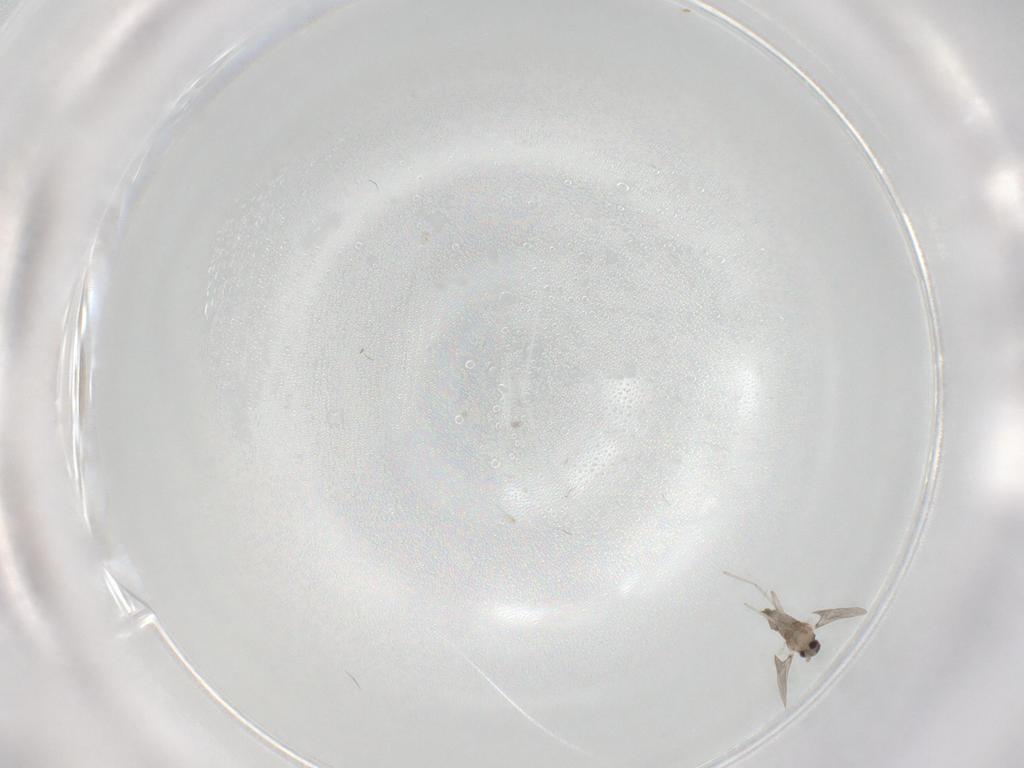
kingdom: Animalia
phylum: Arthropoda
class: Insecta
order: Diptera
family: Cecidomyiidae
